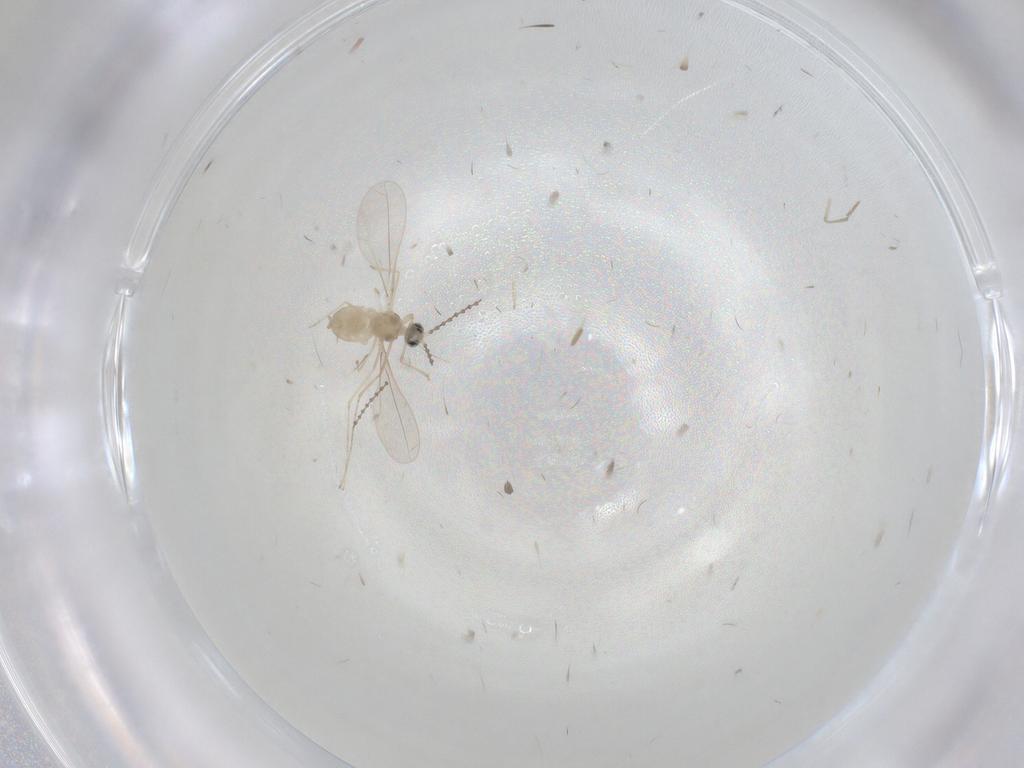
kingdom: Animalia
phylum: Arthropoda
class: Insecta
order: Diptera
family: Cecidomyiidae
